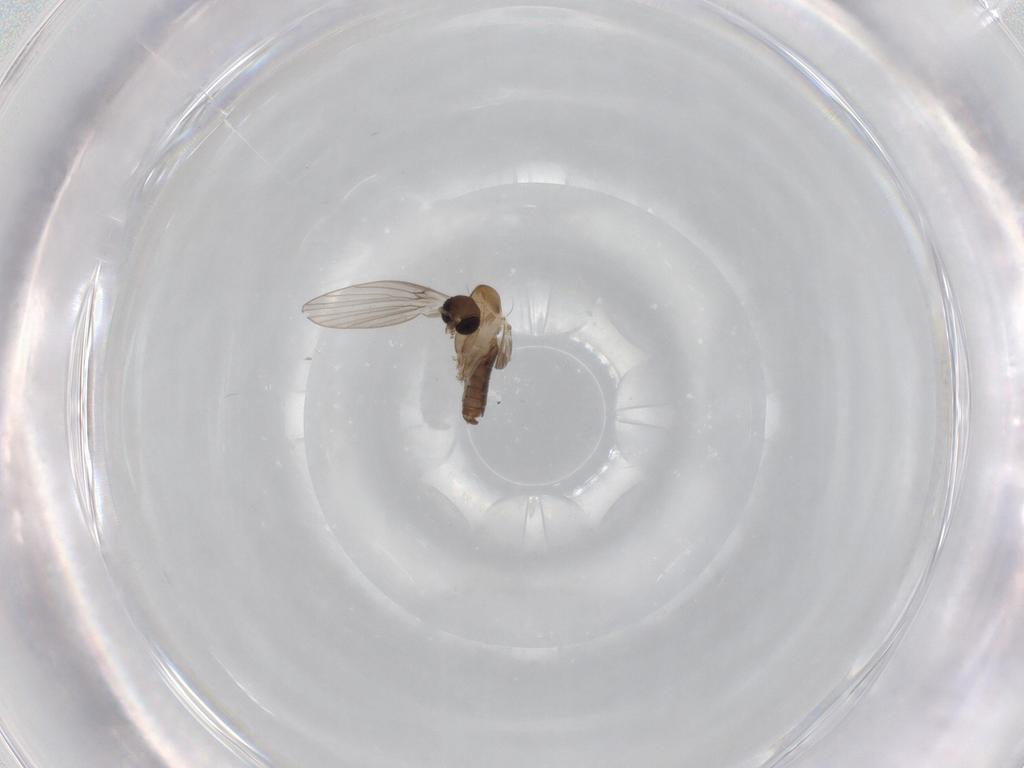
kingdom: Animalia
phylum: Arthropoda
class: Insecta
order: Diptera
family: Psychodidae
